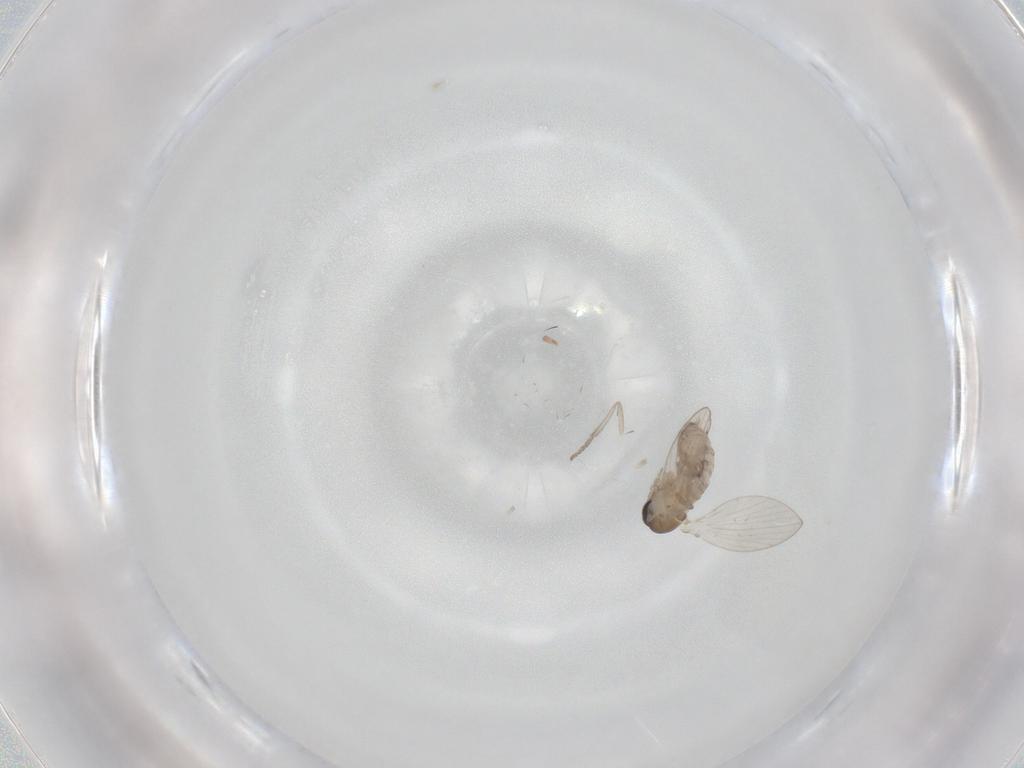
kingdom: Animalia
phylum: Arthropoda
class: Insecta
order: Diptera
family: Psychodidae
